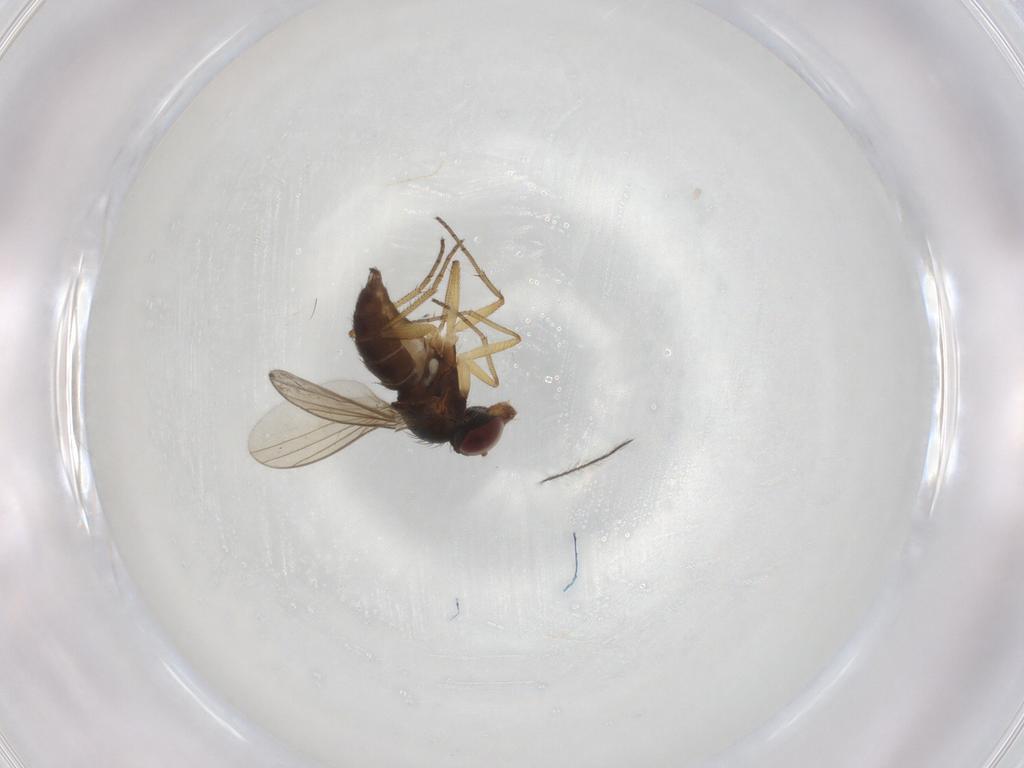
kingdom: Animalia
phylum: Arthropoda
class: Insecta
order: Diptera
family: Dolichopodidae
